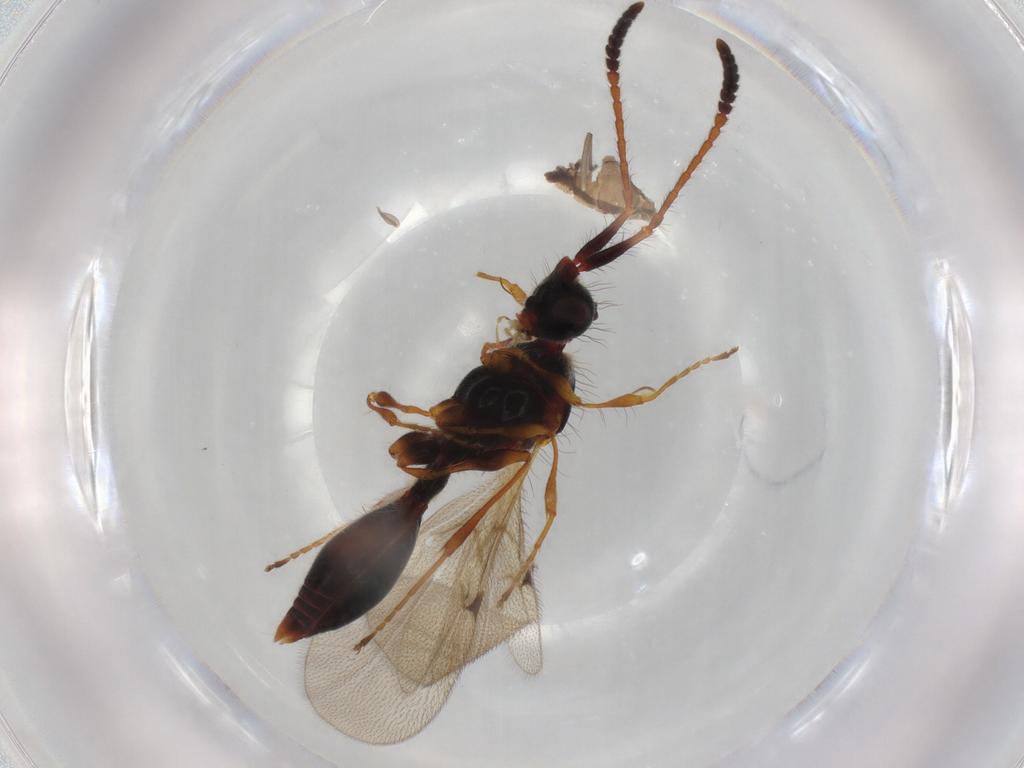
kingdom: Animalia
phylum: Arthropoda
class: Insecta
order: Hymenoptera
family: Diapriidae
